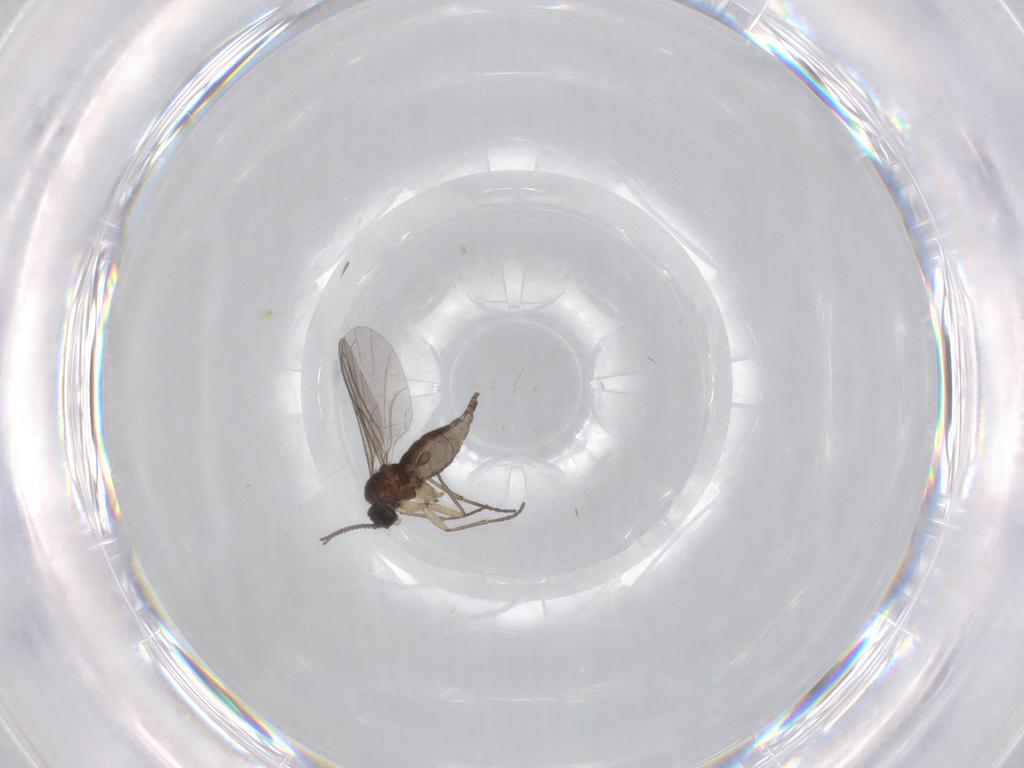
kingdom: Animalia
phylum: Arthropoda
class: Insecta
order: Diptera
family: Sciaridae
